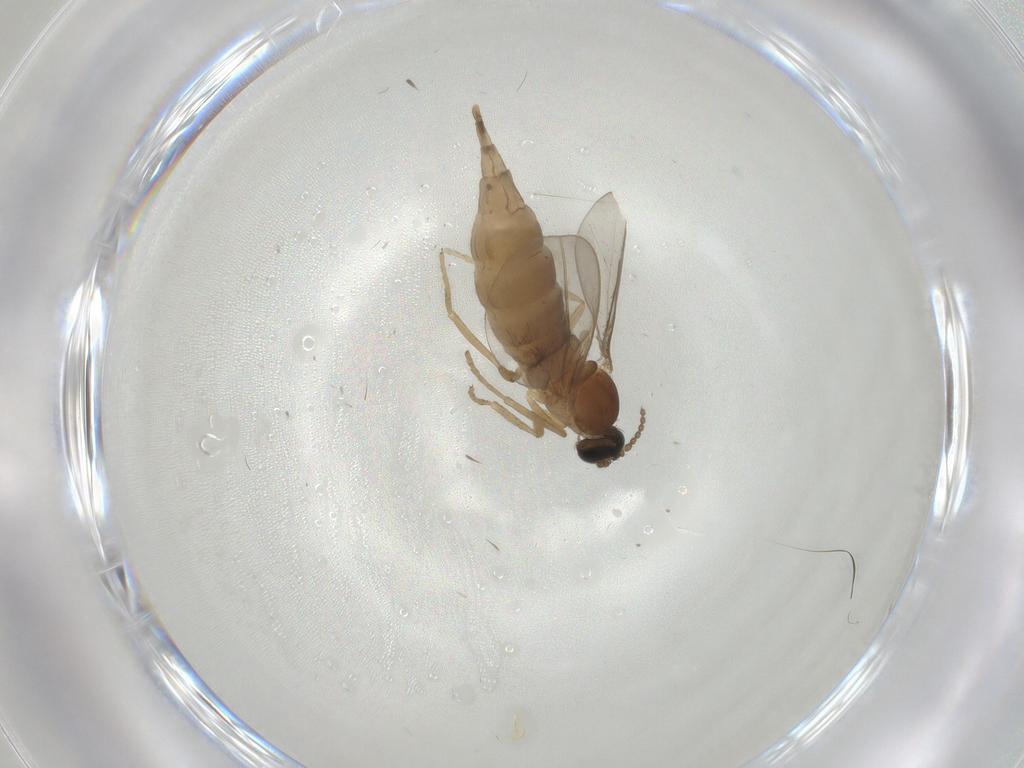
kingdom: Animalia
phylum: Arthropoda
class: Insecta
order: Diptera
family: Cecidomyiidae
